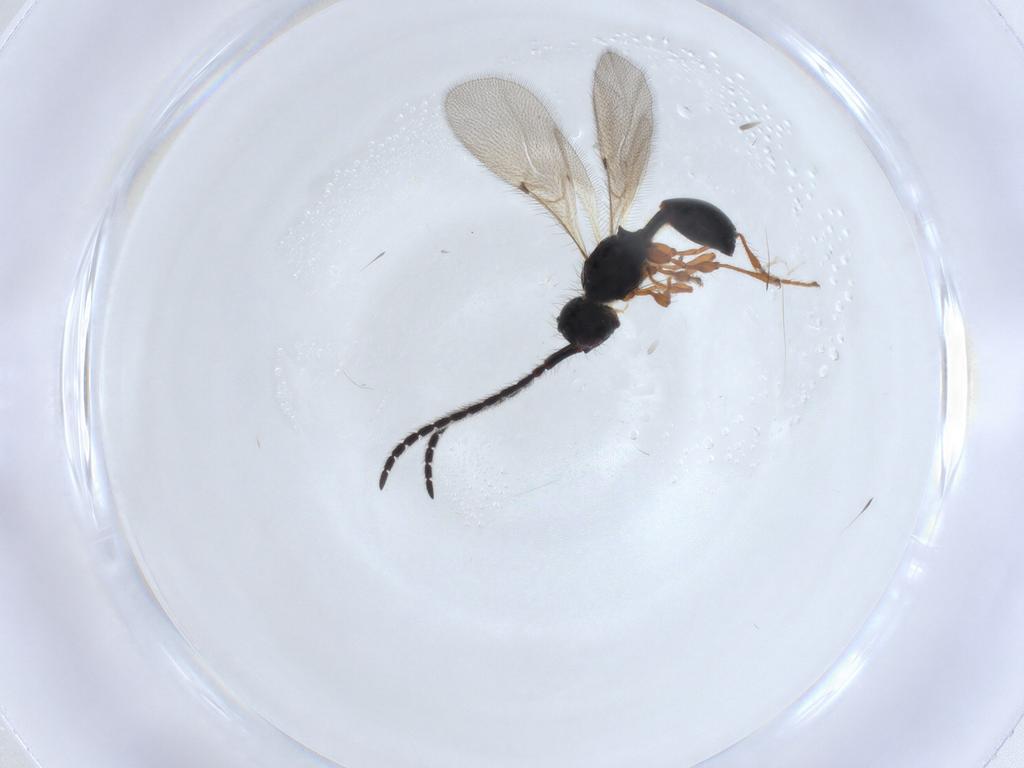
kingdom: Animalia
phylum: Arthropoda
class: Insecta
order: Hymenoptera
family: Diapriidae
